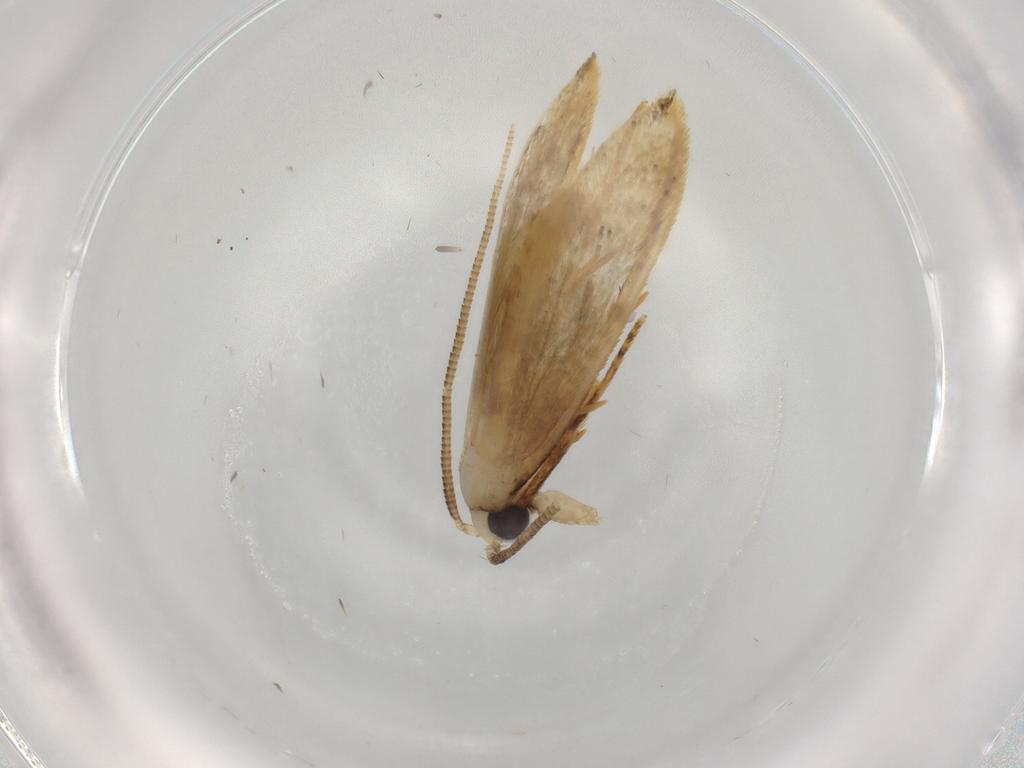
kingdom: Animalia
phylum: Arthropoda
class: Insecta
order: Lepidoptera
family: Tineidae
